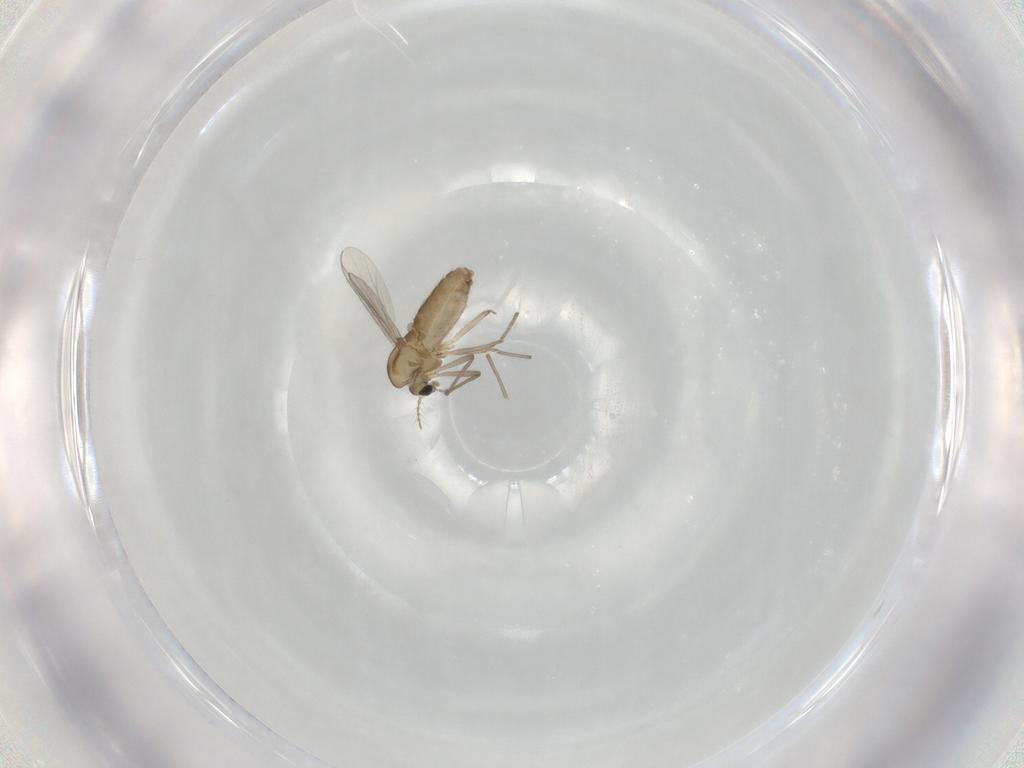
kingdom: Animalia
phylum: Arthropoda
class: Insecta
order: Diptera
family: Chironomidae
